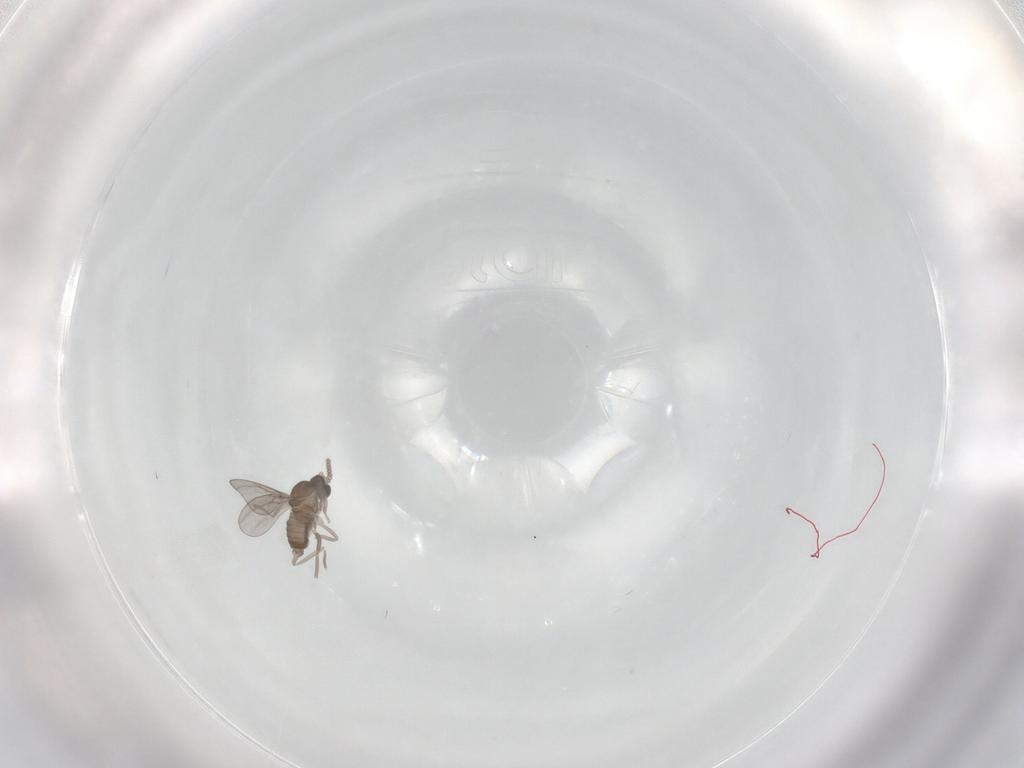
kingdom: Animalia
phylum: Arthropoda
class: Insecta
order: Diptera
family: Cecidomyiidae
